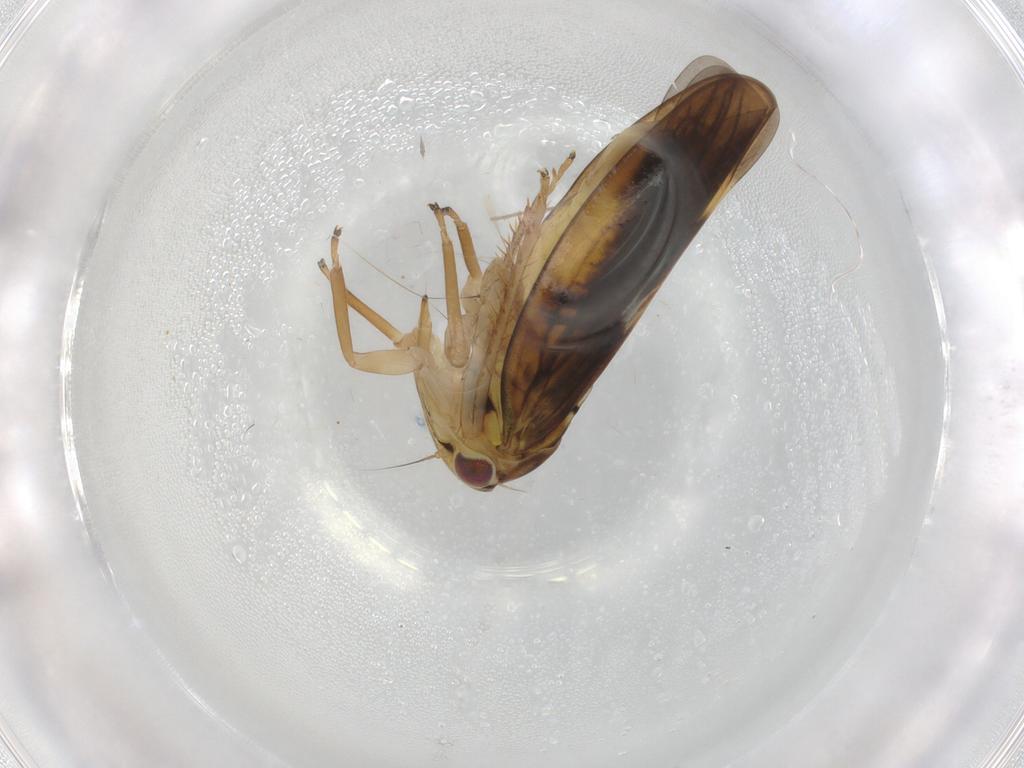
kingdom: Animalia
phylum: Arthropoda
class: Insecta
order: Hemiptera
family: Cicadellidae
